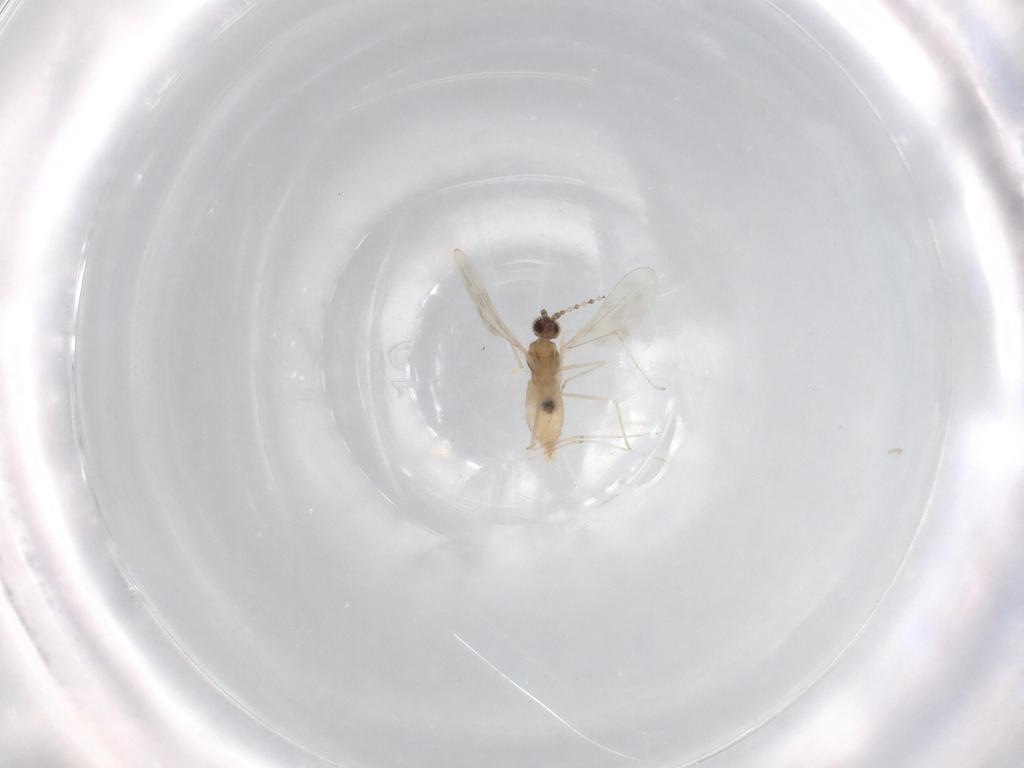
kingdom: Animalia
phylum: Arthropoda
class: Insecta
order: Diptera
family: Cecidomyiidae
